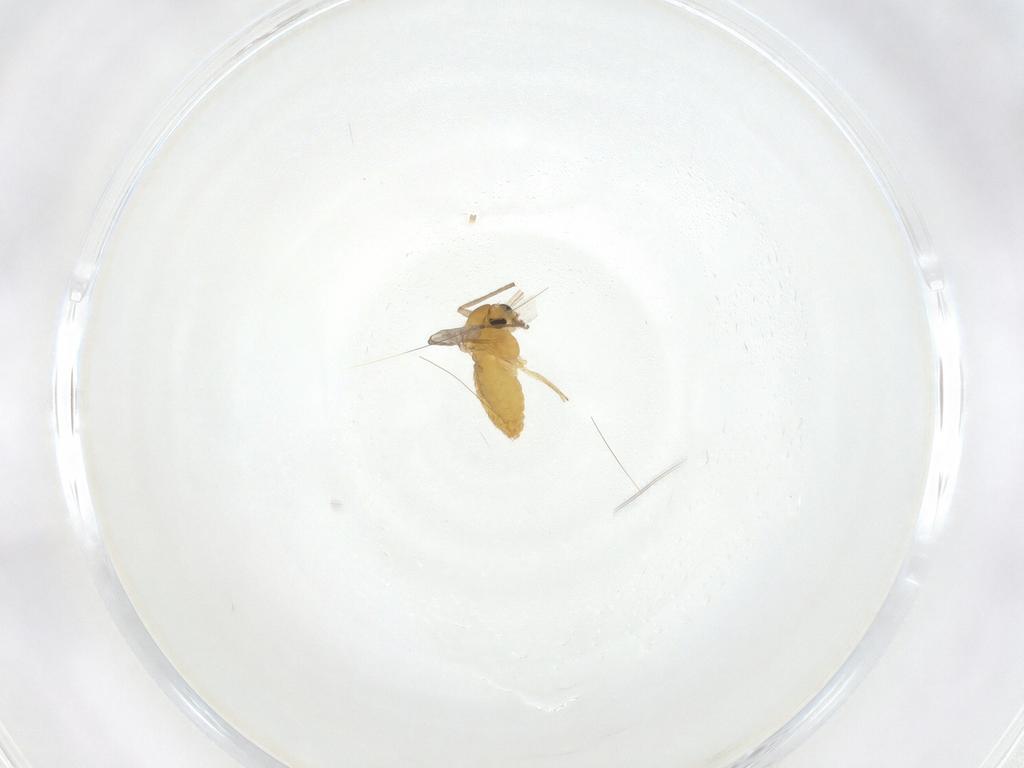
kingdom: Animalia
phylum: Arthropoda
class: Insecta
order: Diptera
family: Chironomidae
